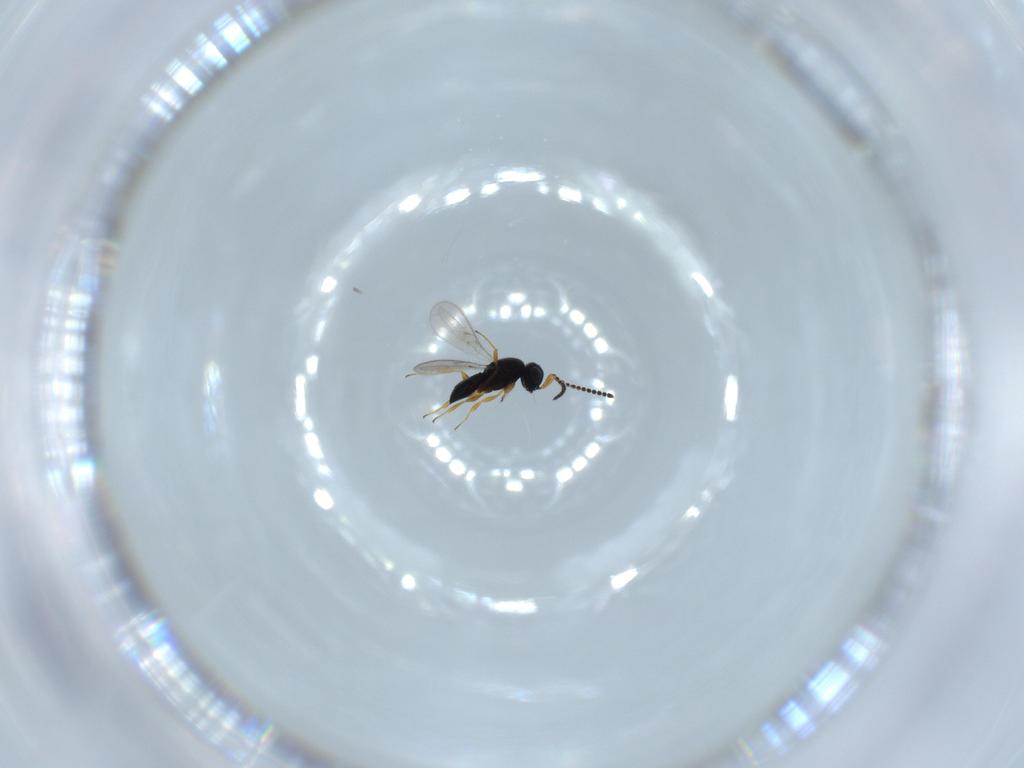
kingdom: Animalia
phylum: Arthropoda
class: Insecta
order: Hymenoptera
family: Scelionidae
